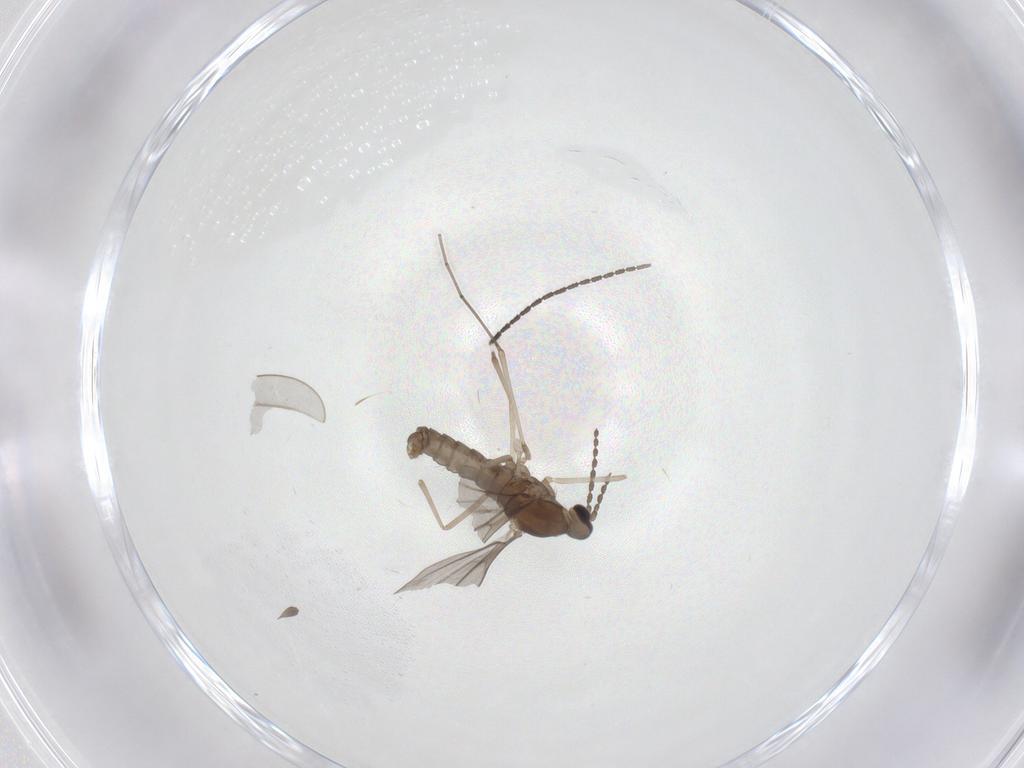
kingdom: Animalia
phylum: Arthropoda
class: Insecta
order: Diptera
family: Sciaridae
